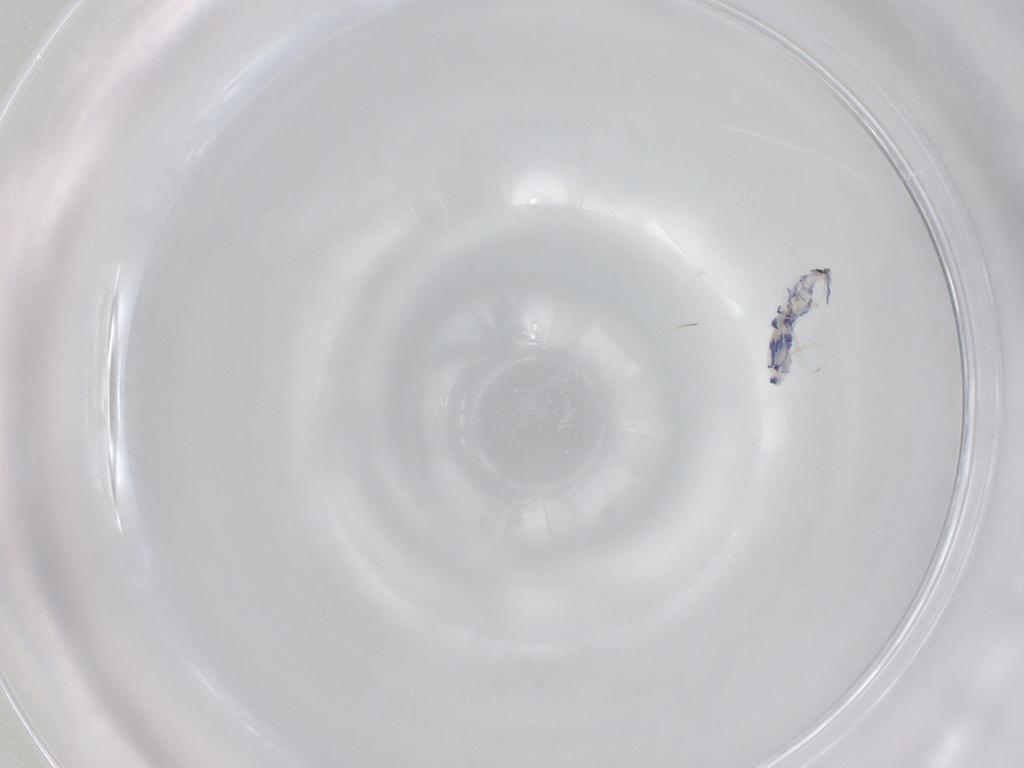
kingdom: Animalia
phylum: Arthropoda
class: Collembola
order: Entomobryomorpha
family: Entomobryidae
